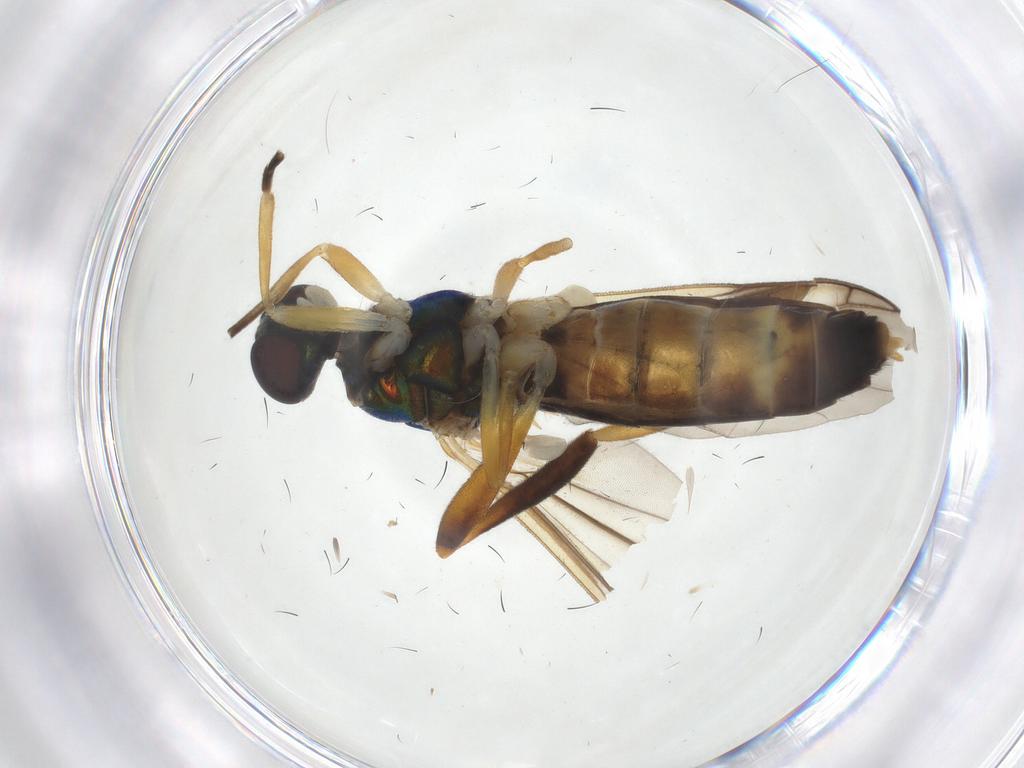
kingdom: Animalia
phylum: Arthropoda
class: Insecta
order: Diptera
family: Stratiomyidae
